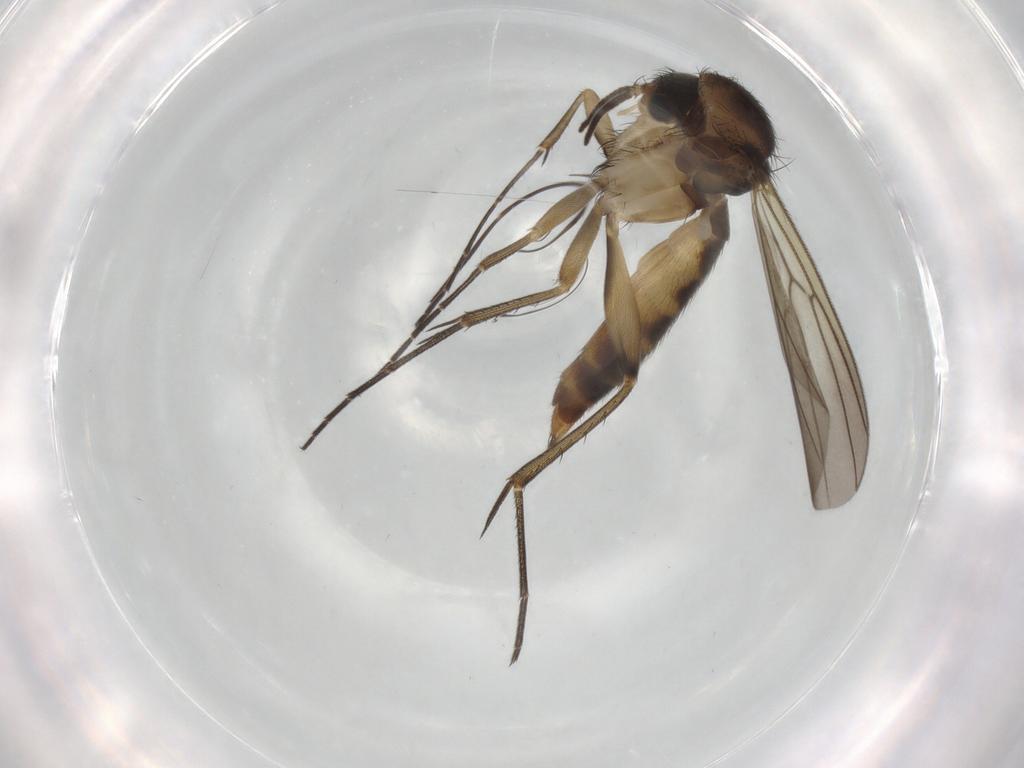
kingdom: Animalia
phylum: Arthropoda
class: Insecta
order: Diptera
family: Mycetophilidae
